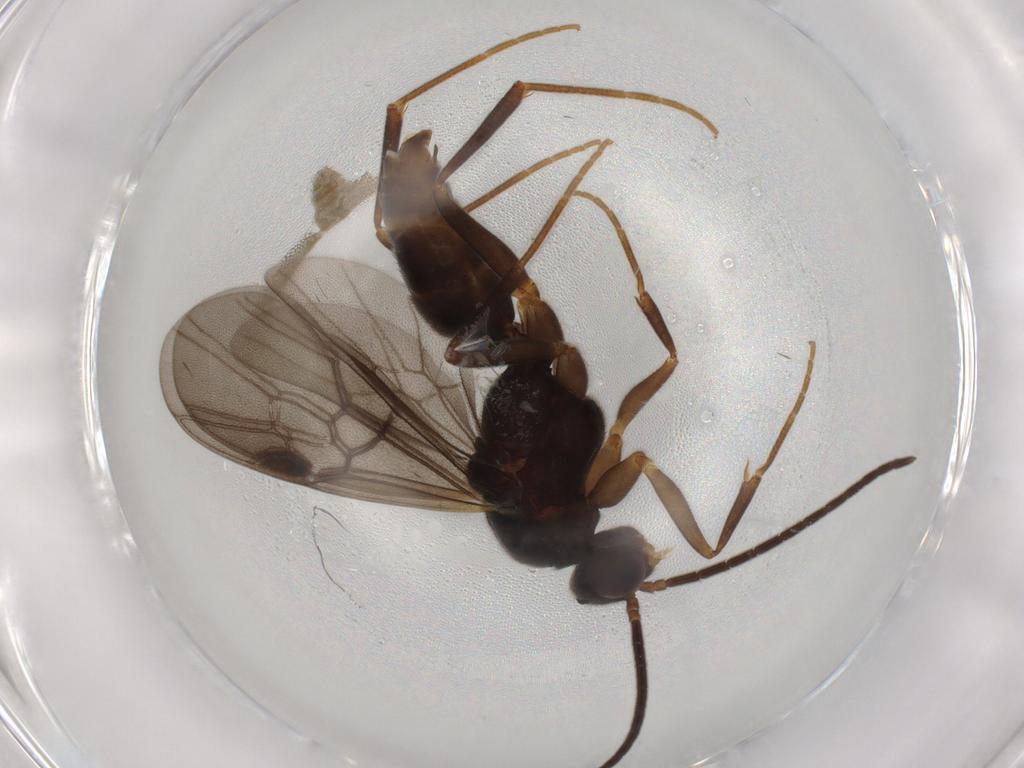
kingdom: Animalia
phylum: Arthropoda
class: Insecta
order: Hymenoptera
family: Formicidae
